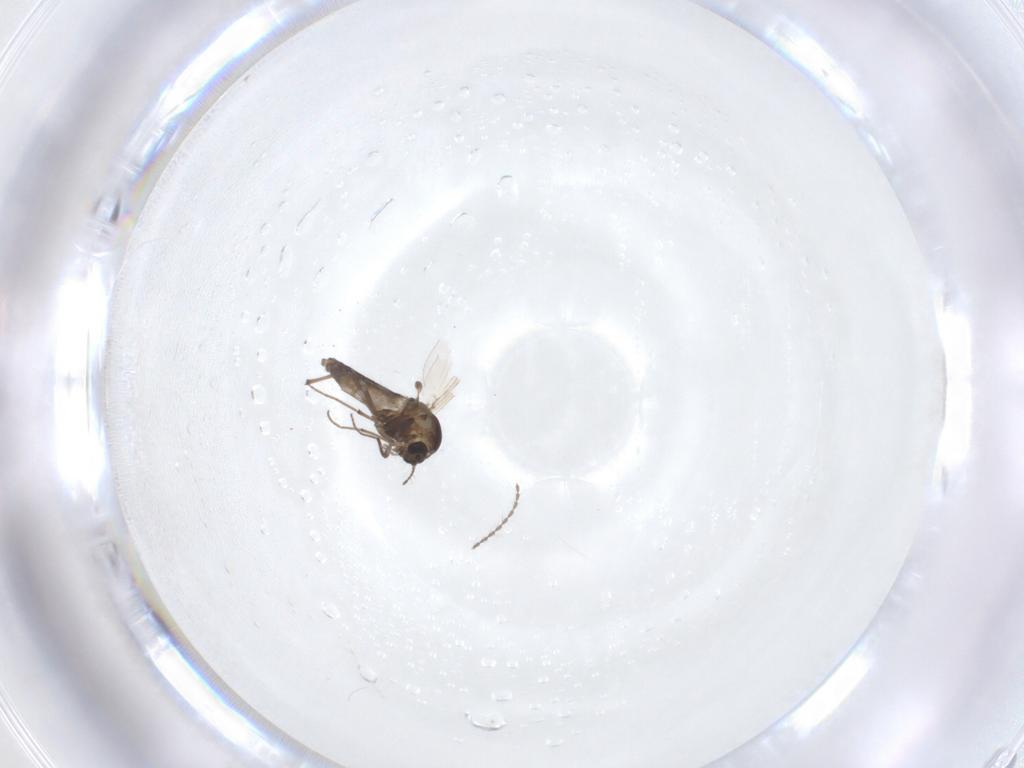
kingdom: Animalia
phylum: Arthropoda
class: Insecta
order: Diptera
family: Chironomidae
